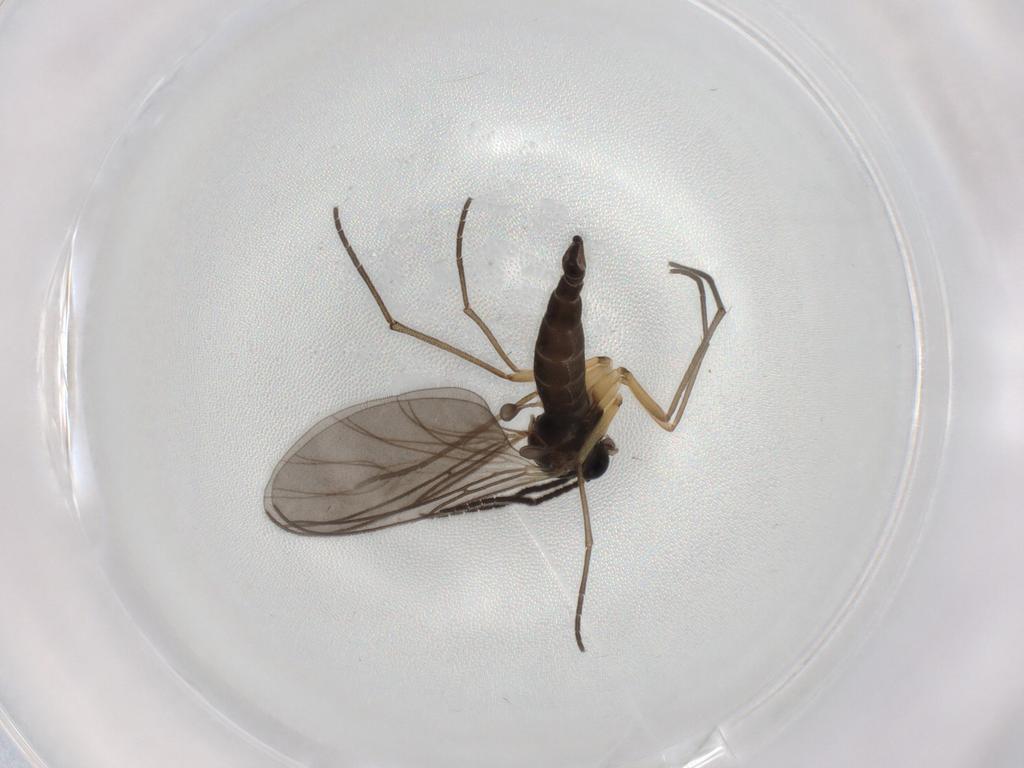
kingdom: Animalia
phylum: Arthropoda
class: Insecta
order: Diptera
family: Sciaridae
